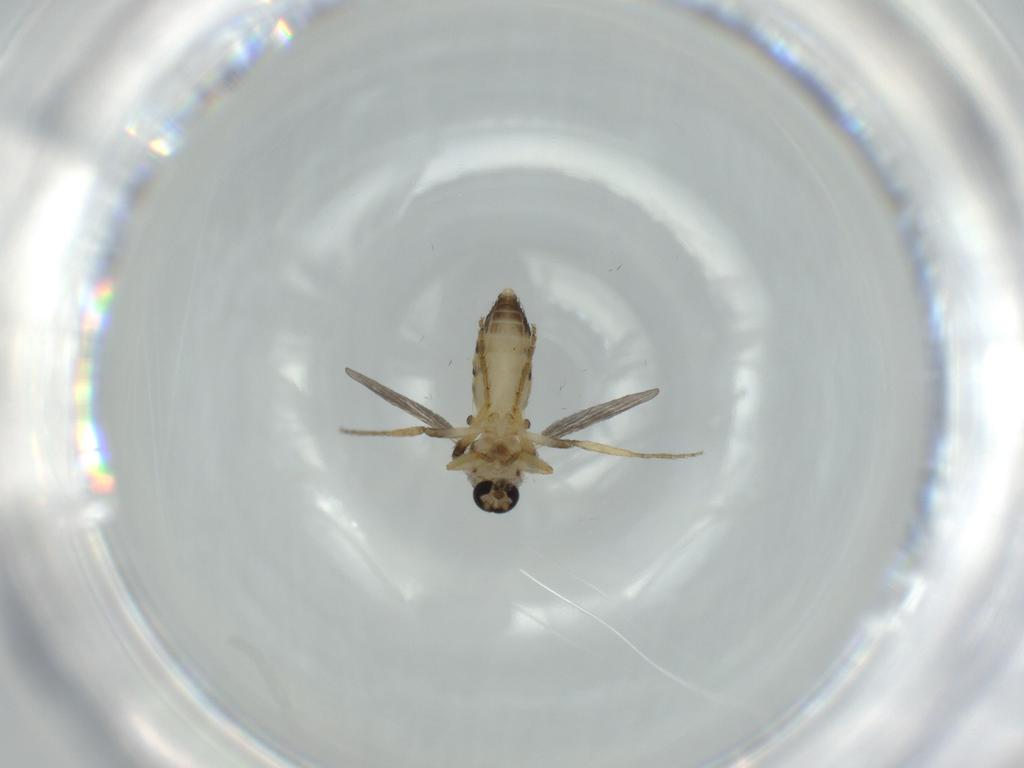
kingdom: Animalia
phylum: Arthropoda
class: Insecta
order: Diptera
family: Ceratopogonidae
